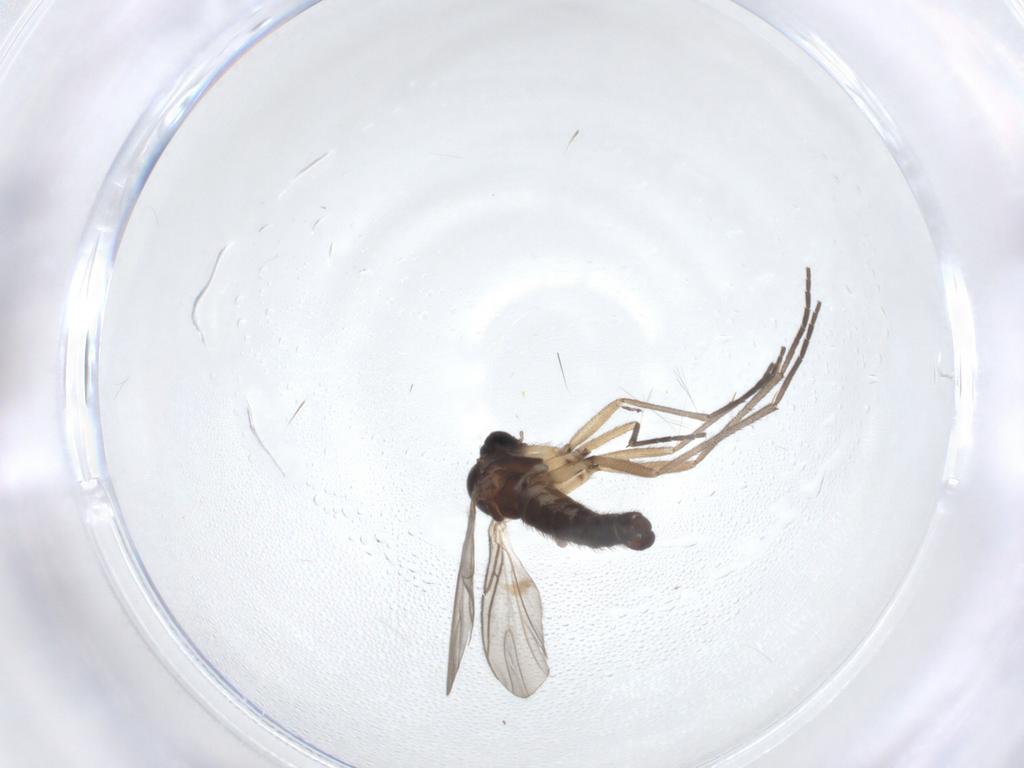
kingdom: Animalia
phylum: Arthropoda
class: Insecta
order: Diptera
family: Sciaridae
